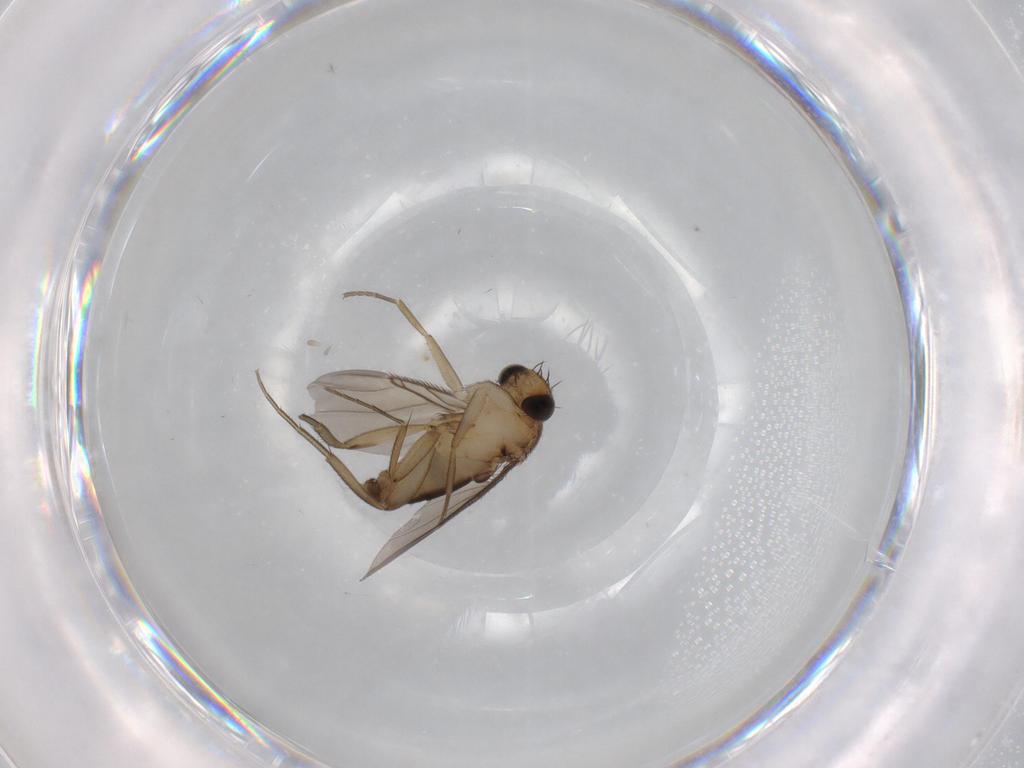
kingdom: Animalia
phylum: Arthropoda
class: Insecta
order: Diptera
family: Phoridae
